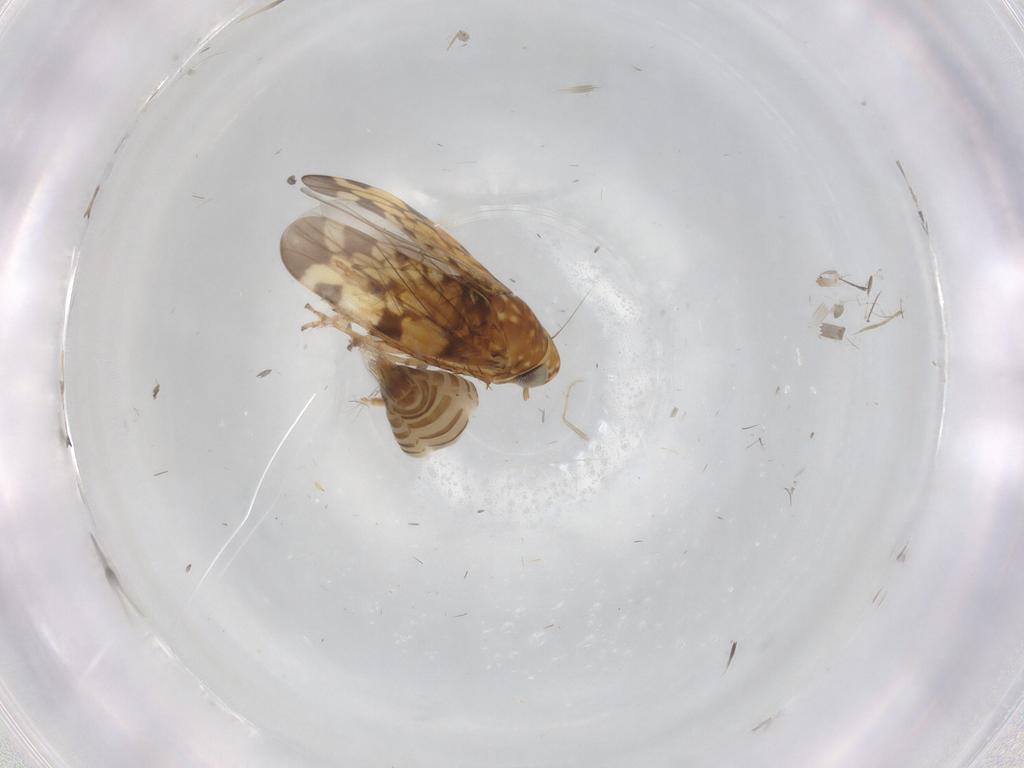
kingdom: Animalia
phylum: Arthropoda
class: Insecta
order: Hemiptera
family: Cicadellidae
